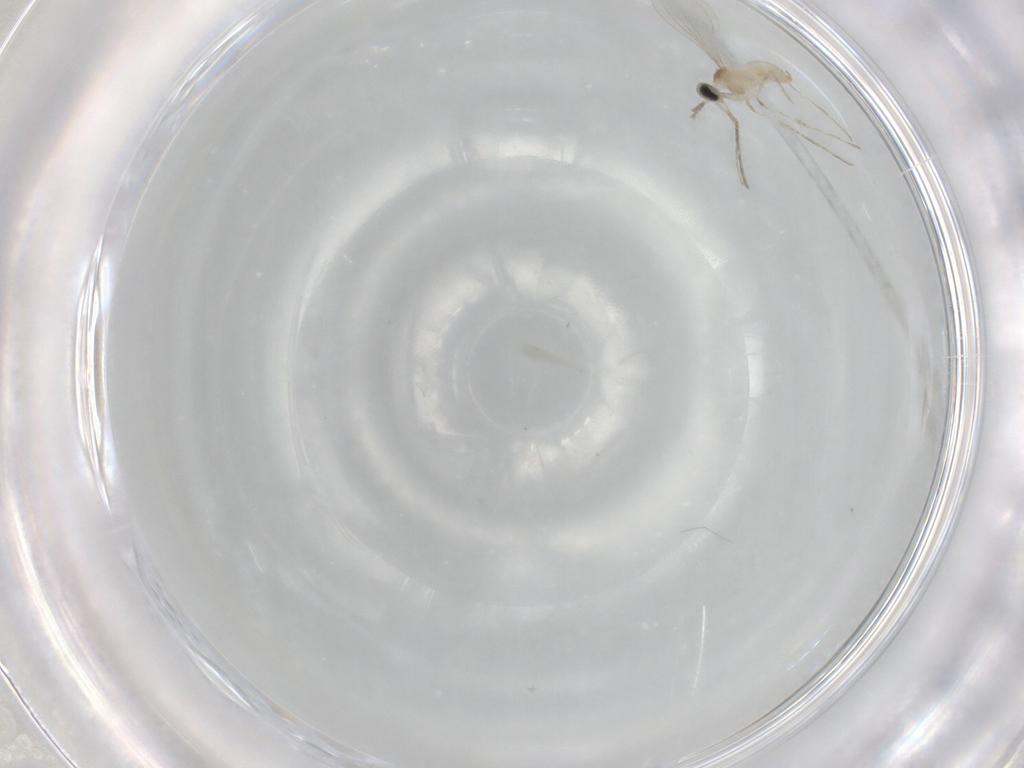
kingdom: Animalia
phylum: Arthropoda
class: Insecta
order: Diptera
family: Cecidomyiidae
